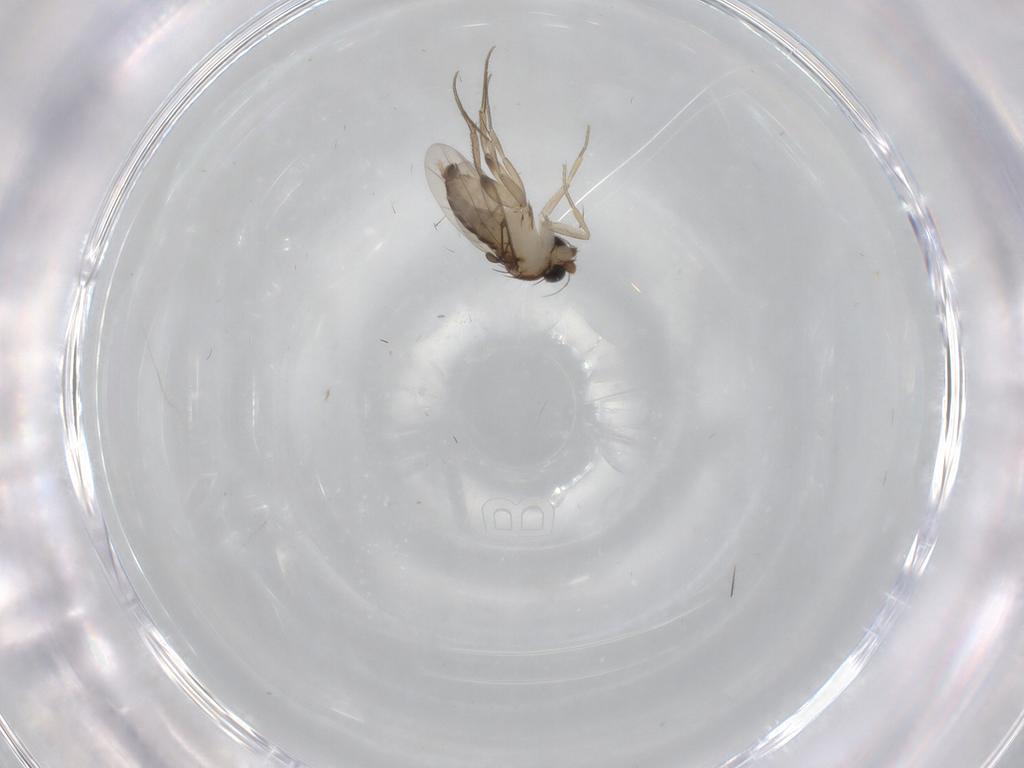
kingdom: Animalia
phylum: Arthropoda
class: Insecta
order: Diptera
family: Cecidomyiidae
